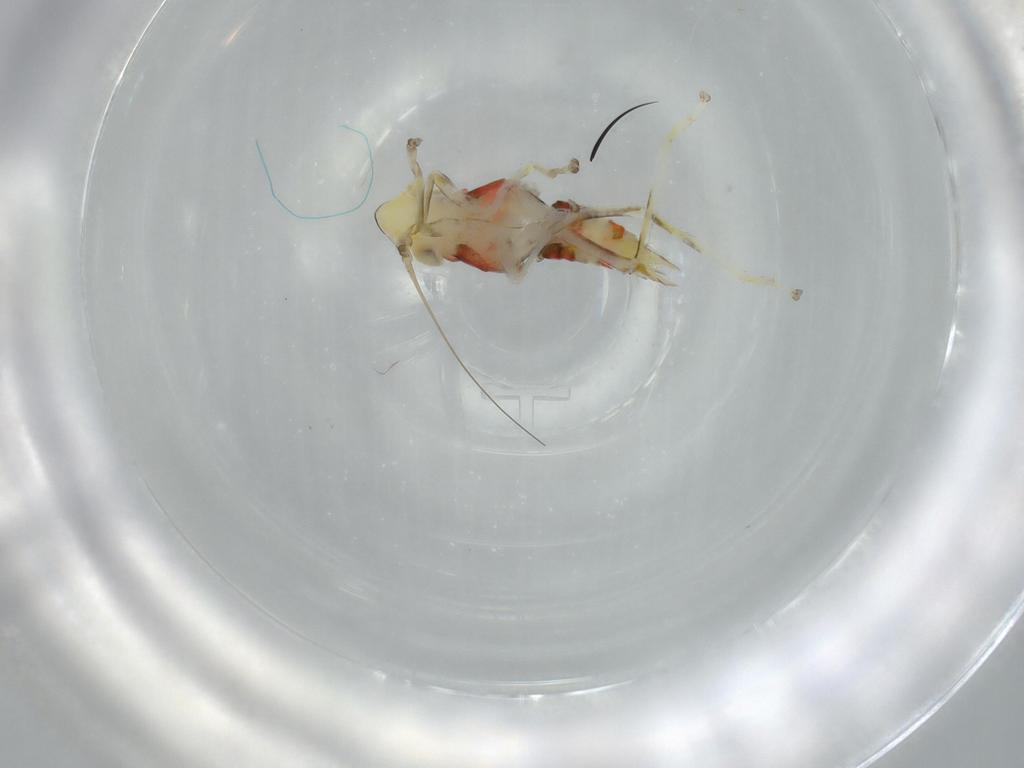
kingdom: Animalia
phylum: Arthropoda
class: Insecta
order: Hemiptera
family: Cicadellidae
